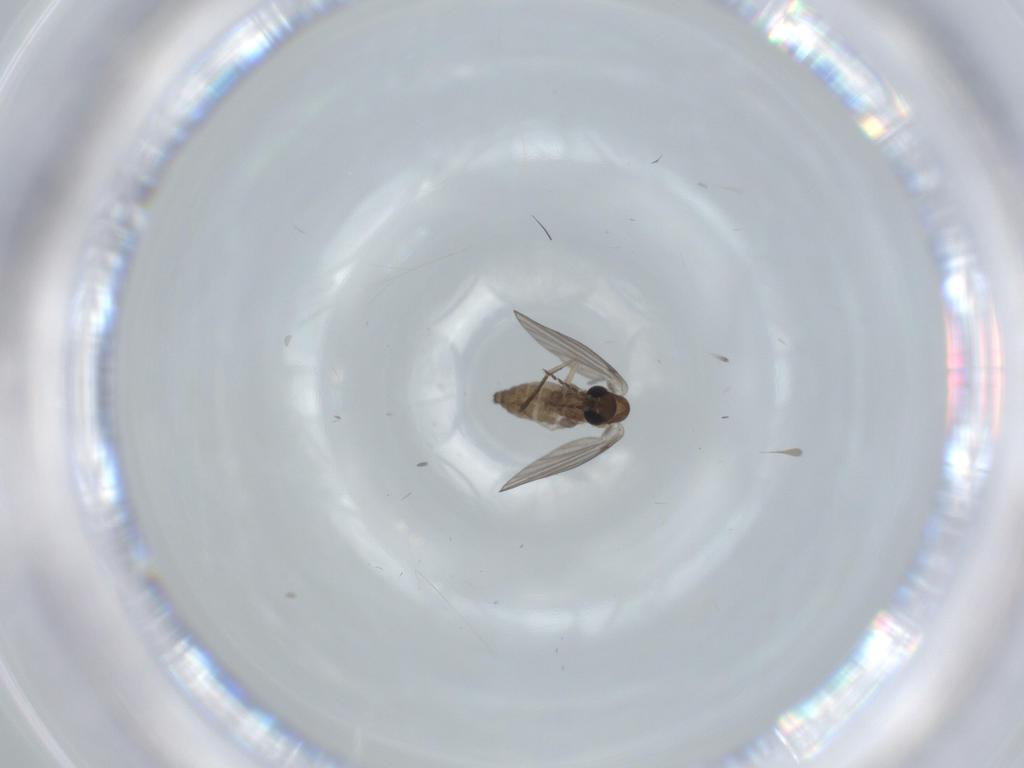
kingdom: Animalia
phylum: Arthropoda
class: Insecta
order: Diptera
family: Psychodidae
